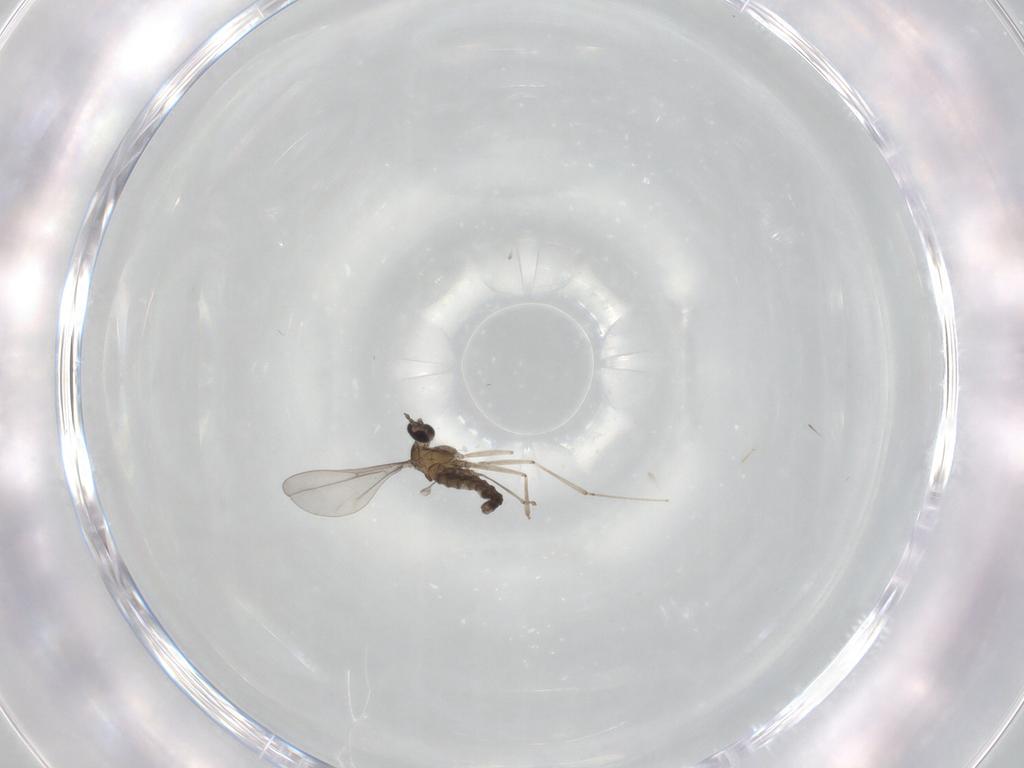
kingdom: Animalia
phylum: Arthropoda
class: Insecta
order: Diptera
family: Cecidomyiidae
